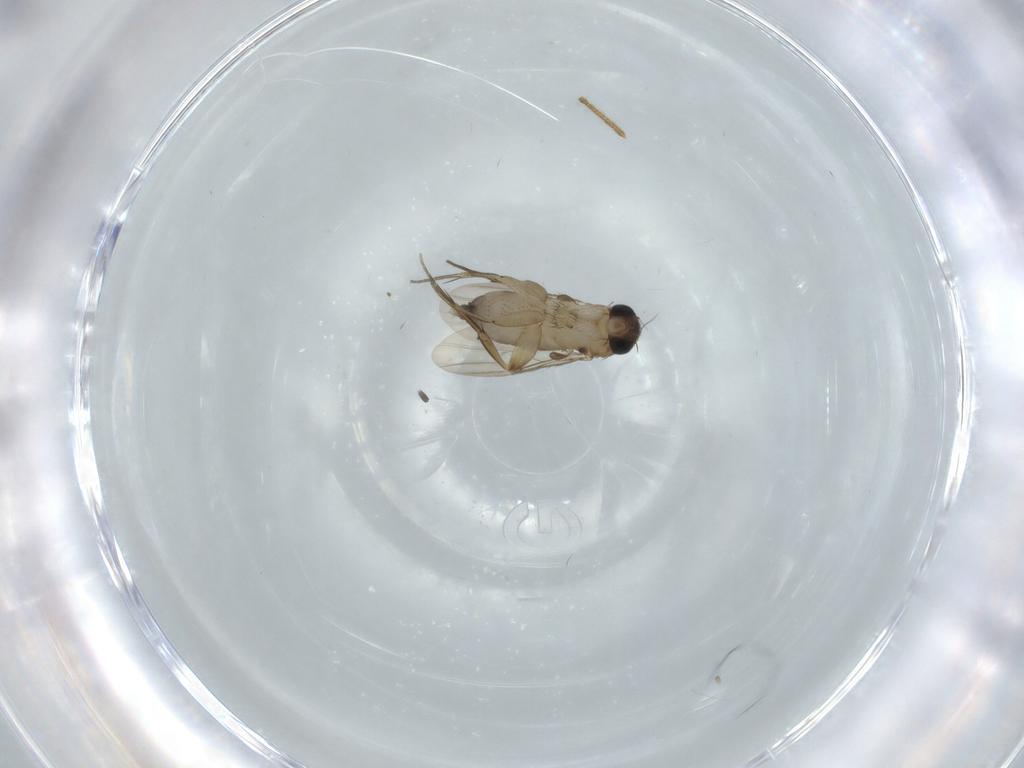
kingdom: Animalia
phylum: Arthropoda
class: Insecta
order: Diptera
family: Phoridae
